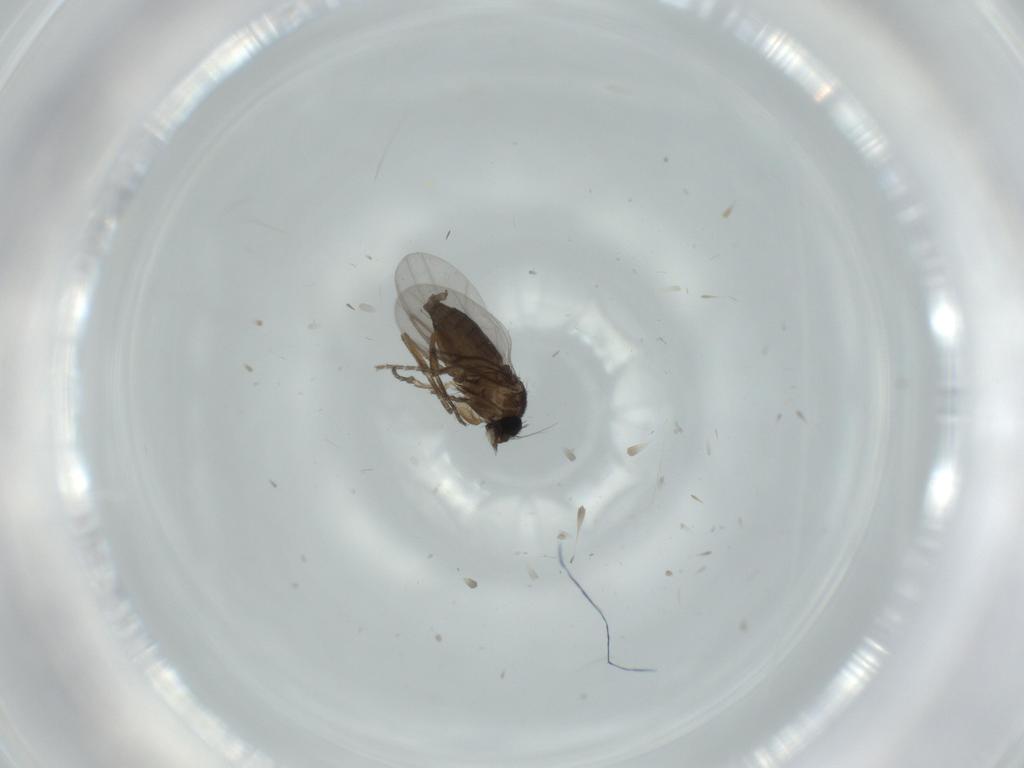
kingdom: Animalia
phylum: Arthropoda
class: Insecta
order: Diptera
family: Phoridae
